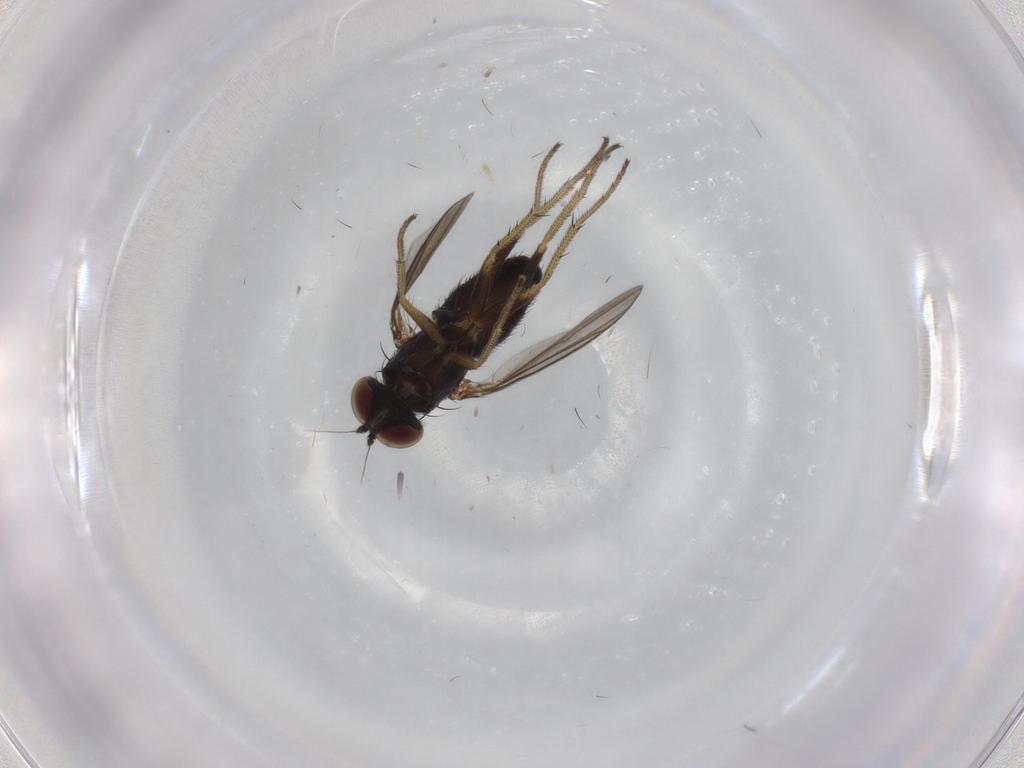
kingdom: Animalia
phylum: Arthropoda
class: Insecta
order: Diptera
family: Dolichopodidae
